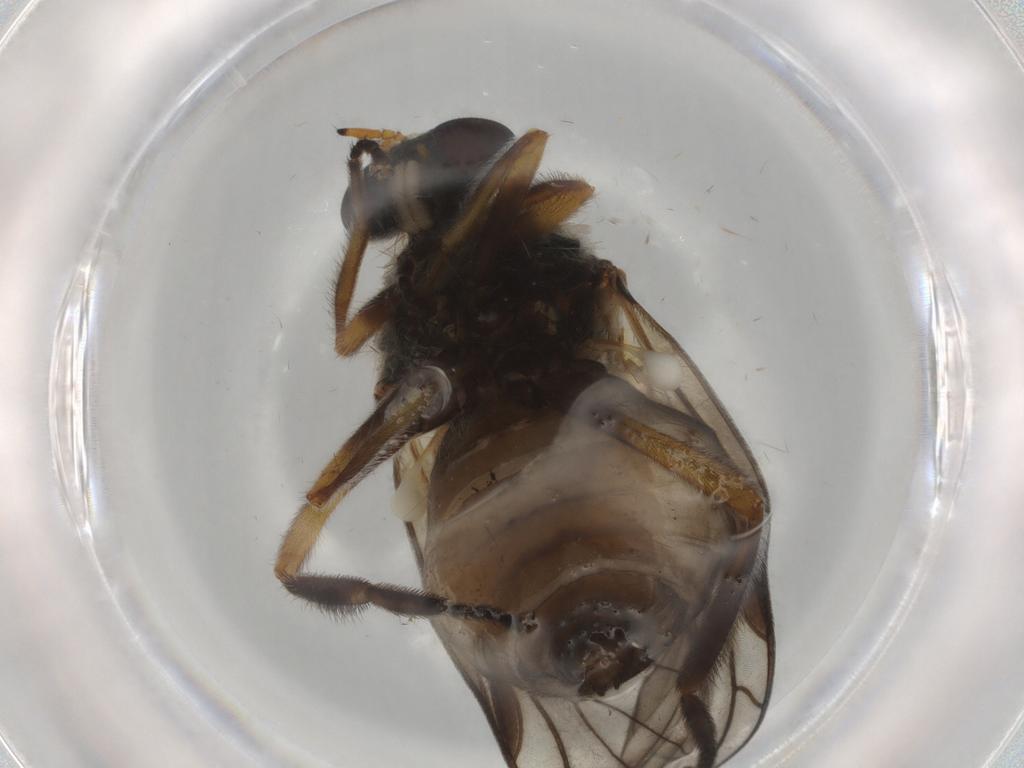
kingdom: Animalia
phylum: Arthropoda
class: Insecta
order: Diptera
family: Stratiomyidae
